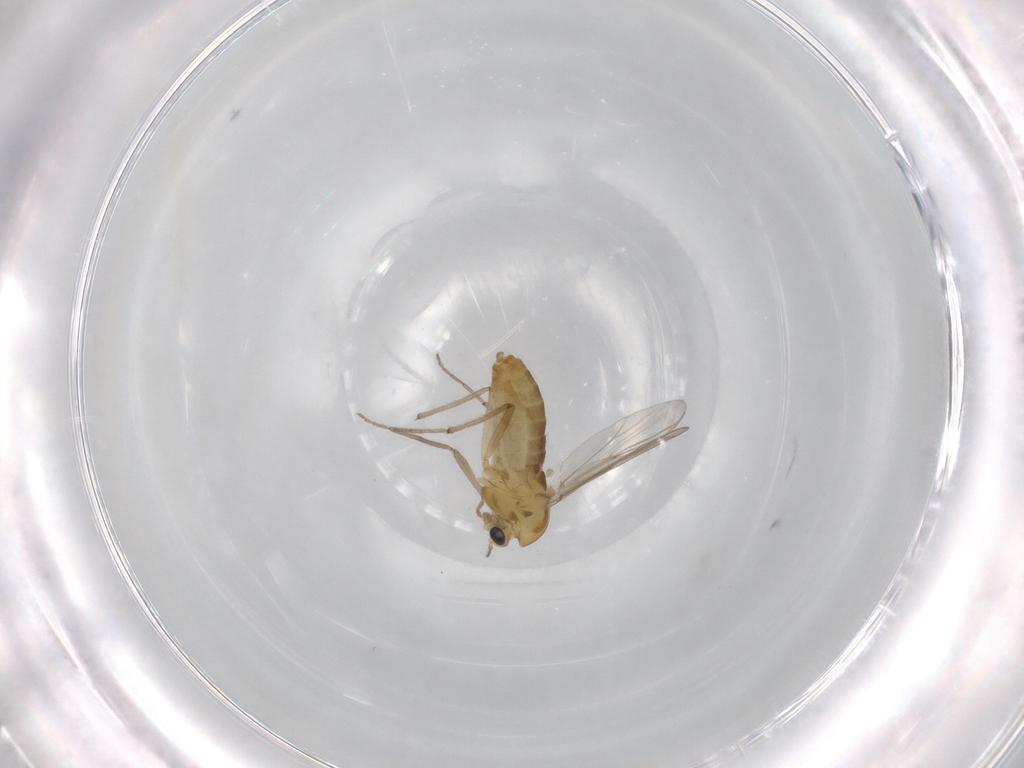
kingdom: Animalia
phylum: Arthropoda
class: Insecta
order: Diptera
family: Chironomidae
